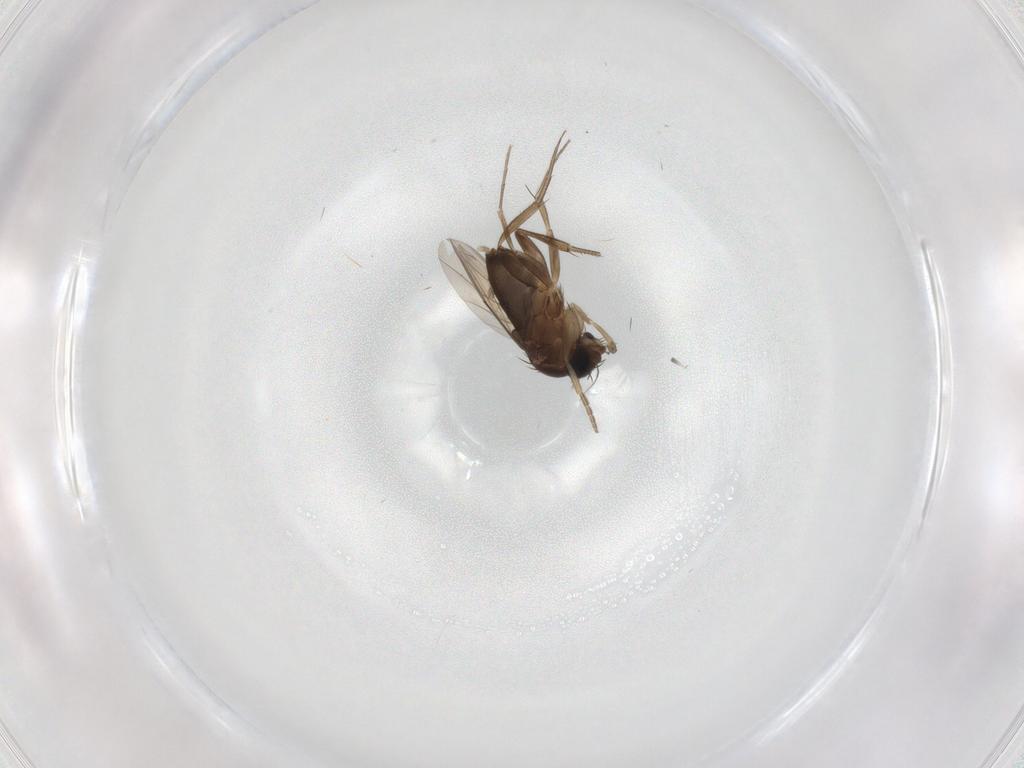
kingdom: Animalia
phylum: Arthropoda
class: Insecta
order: Diptera
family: Phoridae
